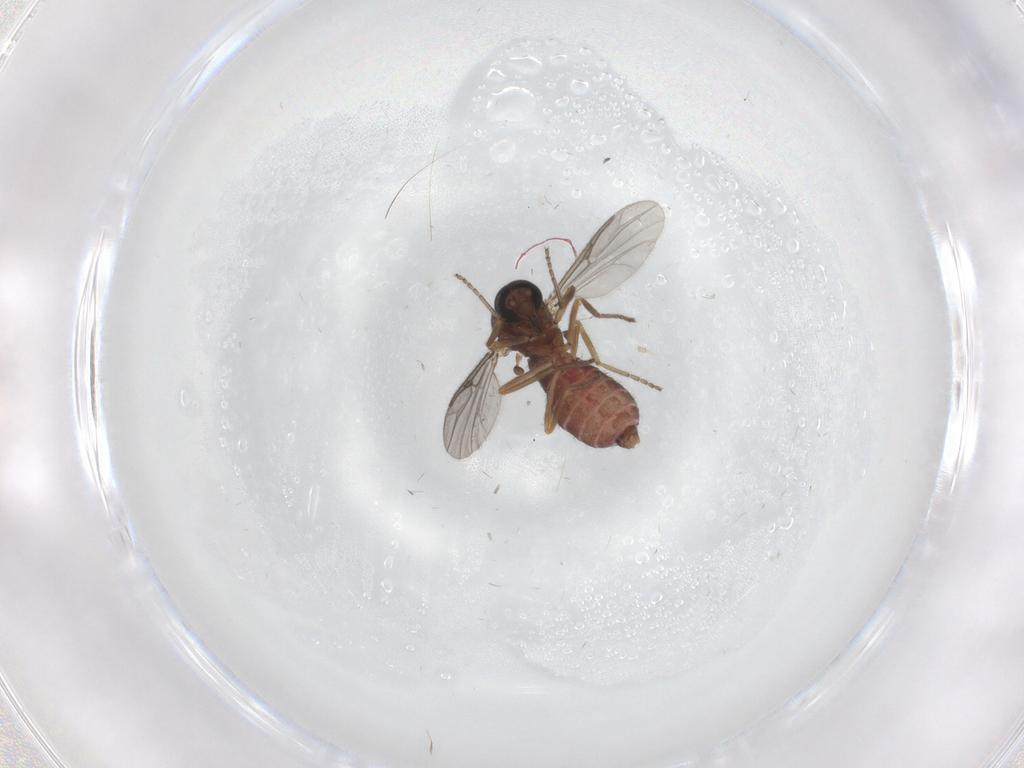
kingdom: Animalia
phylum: Arthropoda
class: Insecta
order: Diptera
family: Ceratopogonidae
